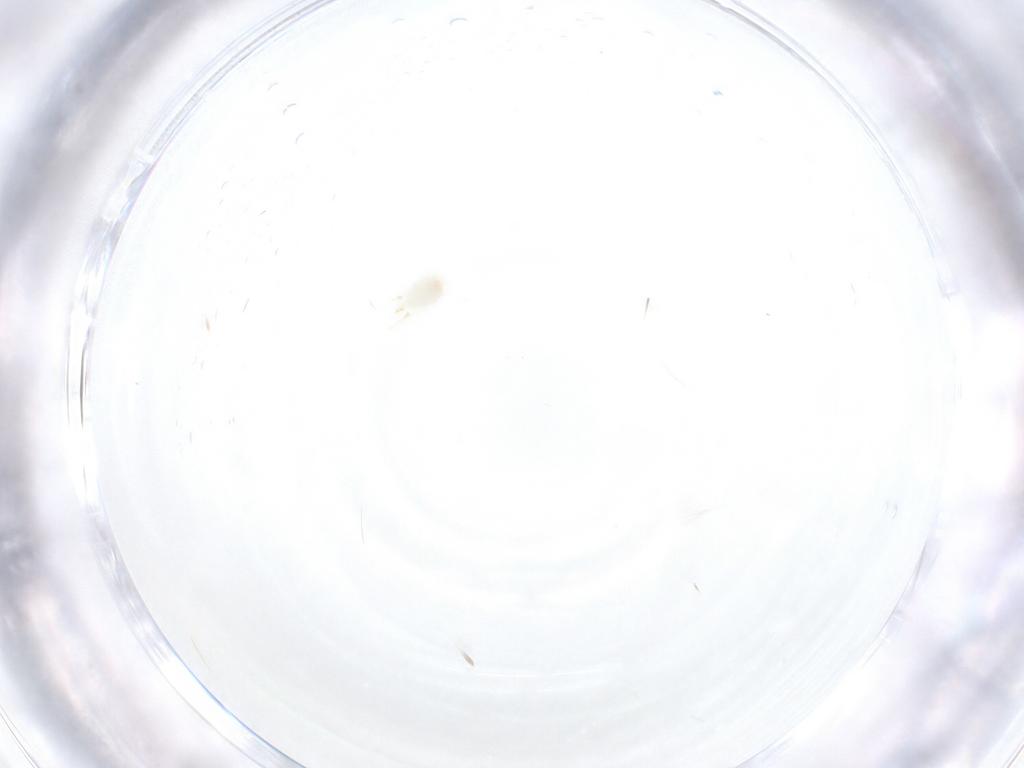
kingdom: Animalia
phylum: Arthropoda
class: Arachnida
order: Mesostigmata
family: Phytoseiidae
